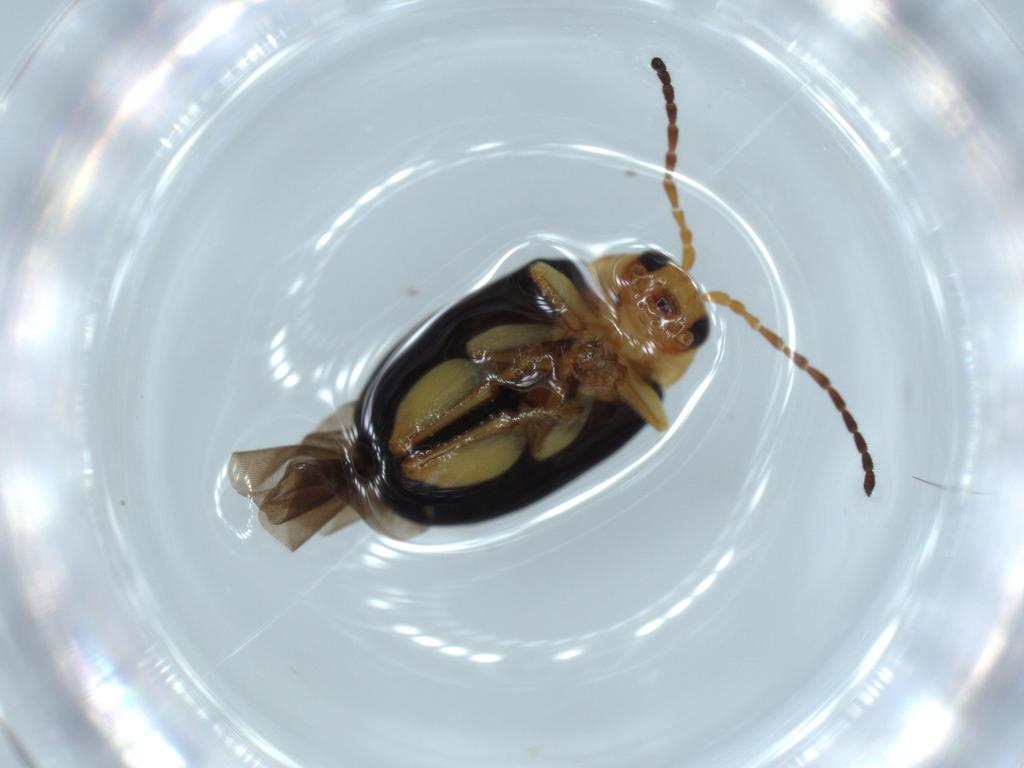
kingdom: Animalia
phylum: Arthropoda
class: Insecta
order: Coleoptera
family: Chrysomelidae
